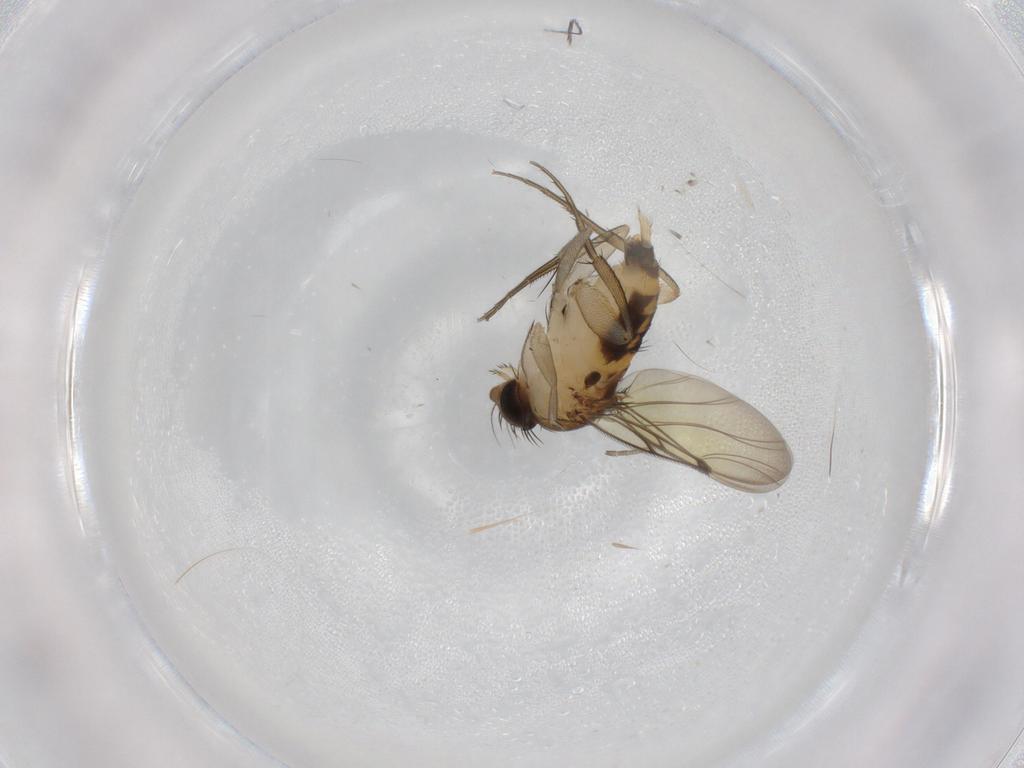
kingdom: Animalia
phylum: Arthropoda
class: Insecta
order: Diptera
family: Phoridae
